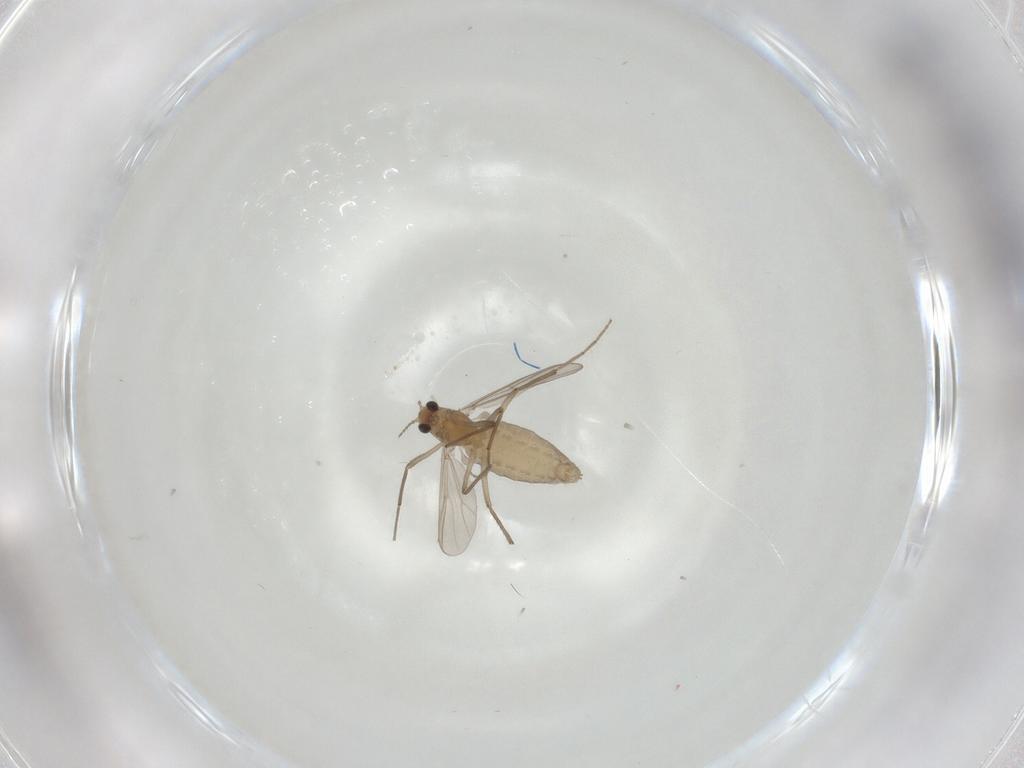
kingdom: Animalia
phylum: Arthropoda
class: Insecta
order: Diptera
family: Chironomidae
